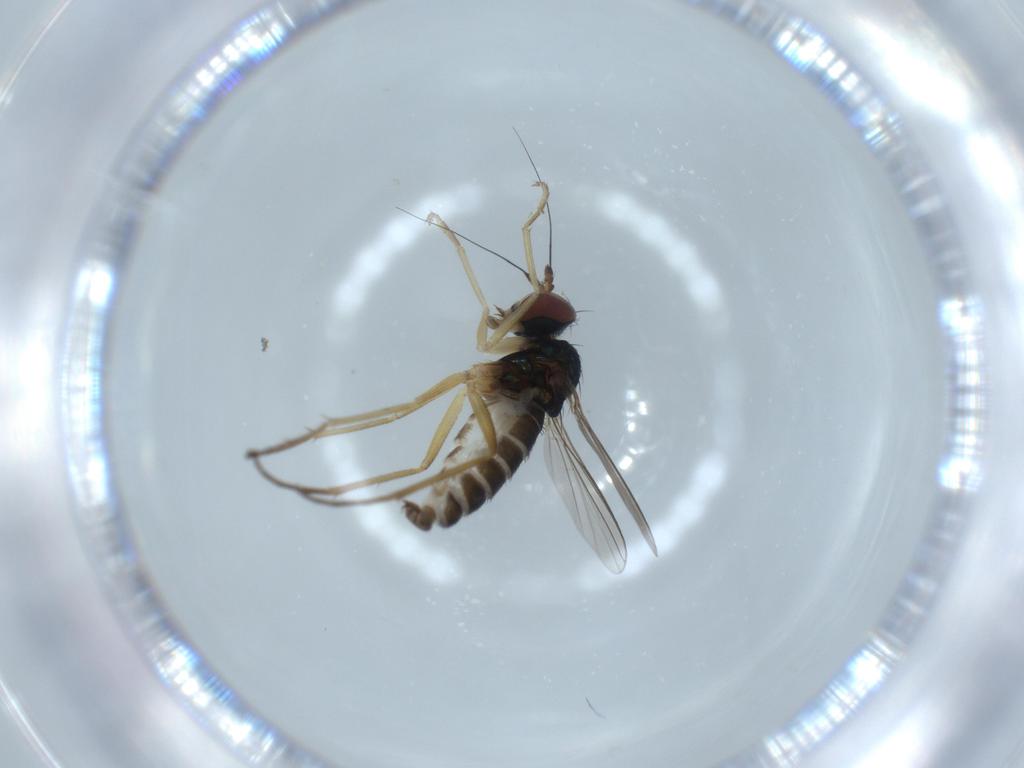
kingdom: Animalia
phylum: Arthropoda
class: Insecta
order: Diptera
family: Dolichopodidae
